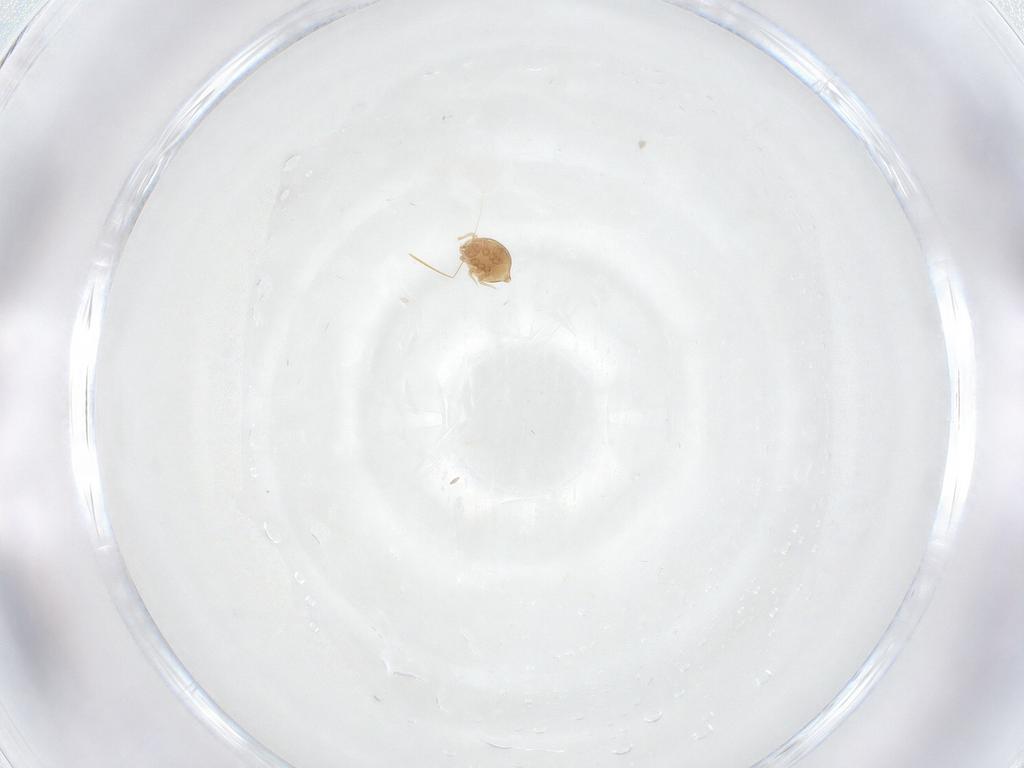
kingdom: Animalia
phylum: Arthropoda
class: Arachnida
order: Mesostigmata
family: Polyaspididae
